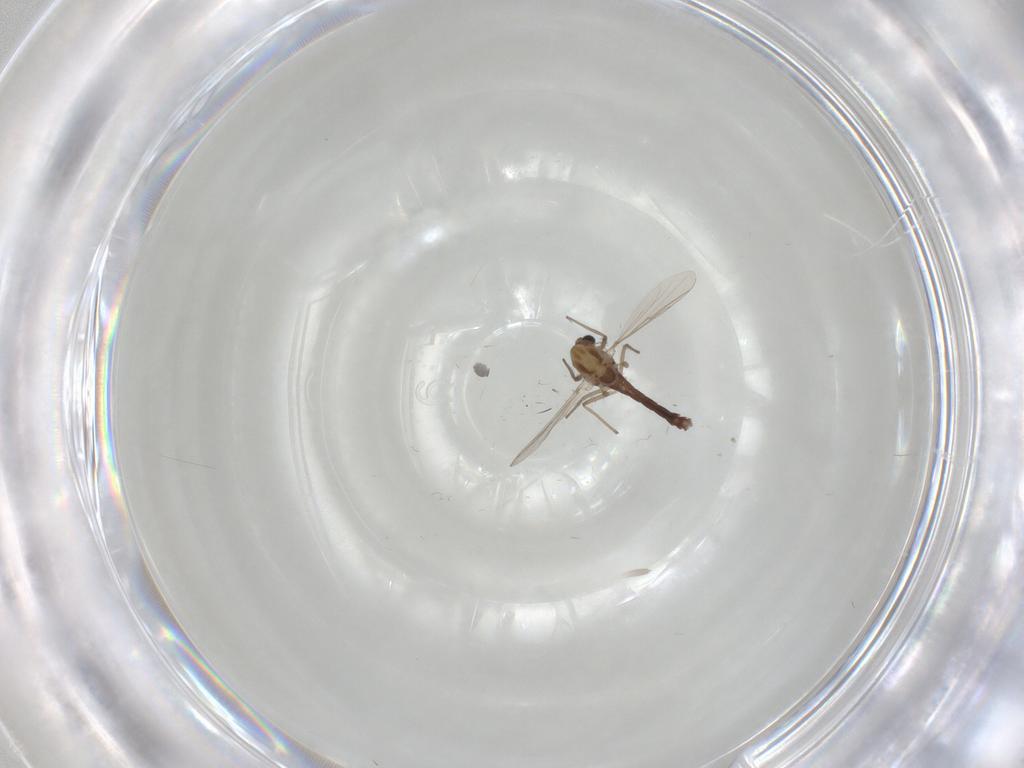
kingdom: Animalia
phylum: Arthropoda
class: Insecta
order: Diptera
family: Chironomidae
